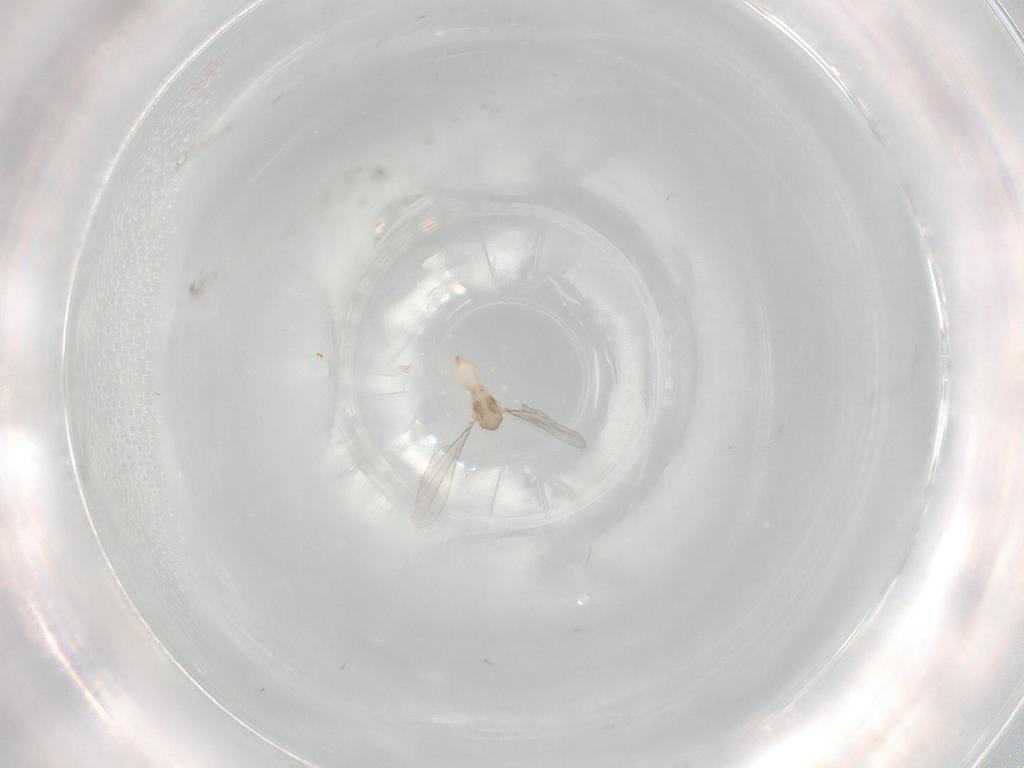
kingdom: Animalia
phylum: Arthropoda
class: Insecta
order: Diptera
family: Cecidomyiidae
